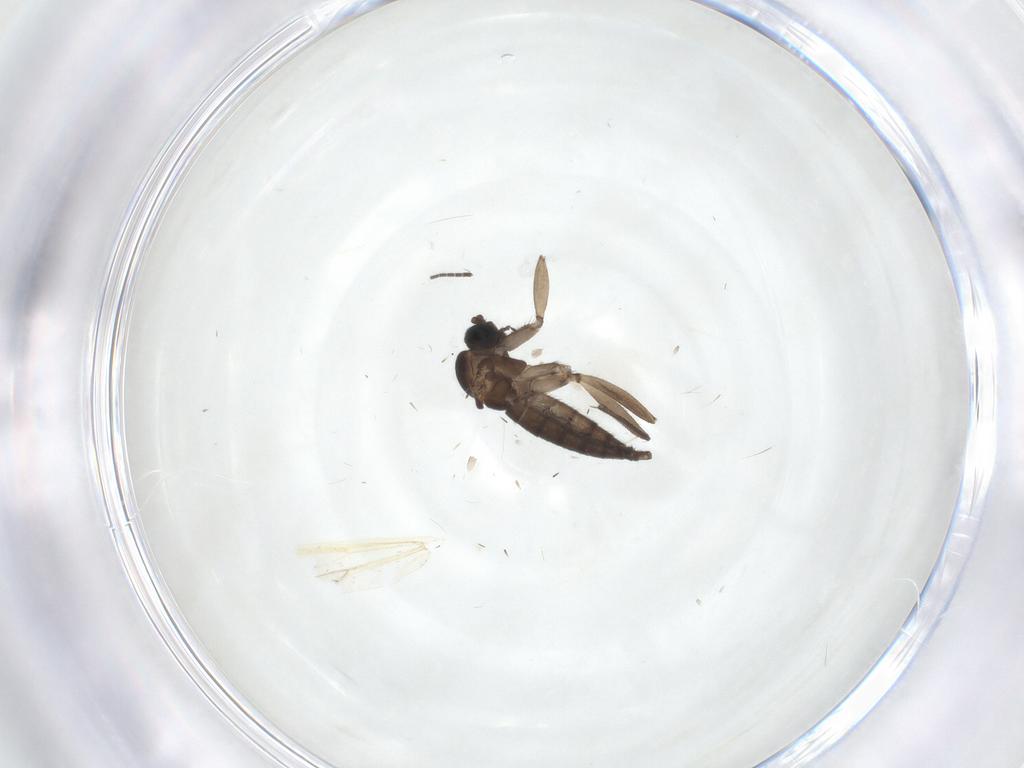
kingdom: Animalia
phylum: Arthropoda
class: Insecta
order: Diptera
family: Sciaridae
